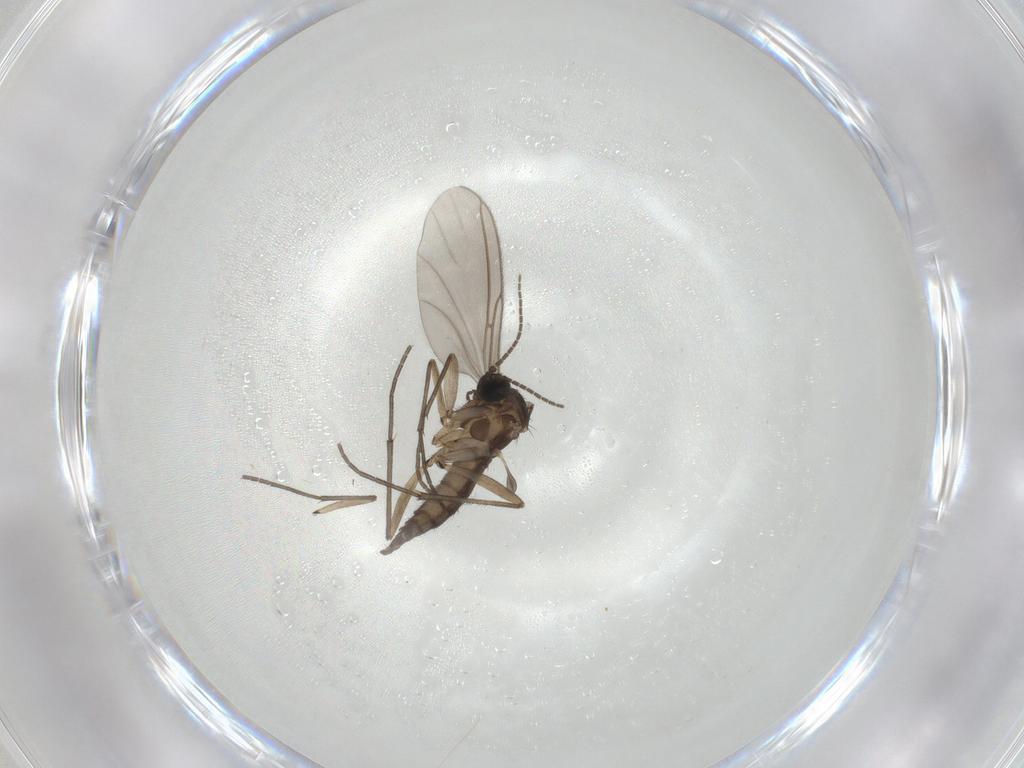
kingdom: Animalia
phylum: Arthropoda
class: Insecta
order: Diptera
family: Sciaridae
